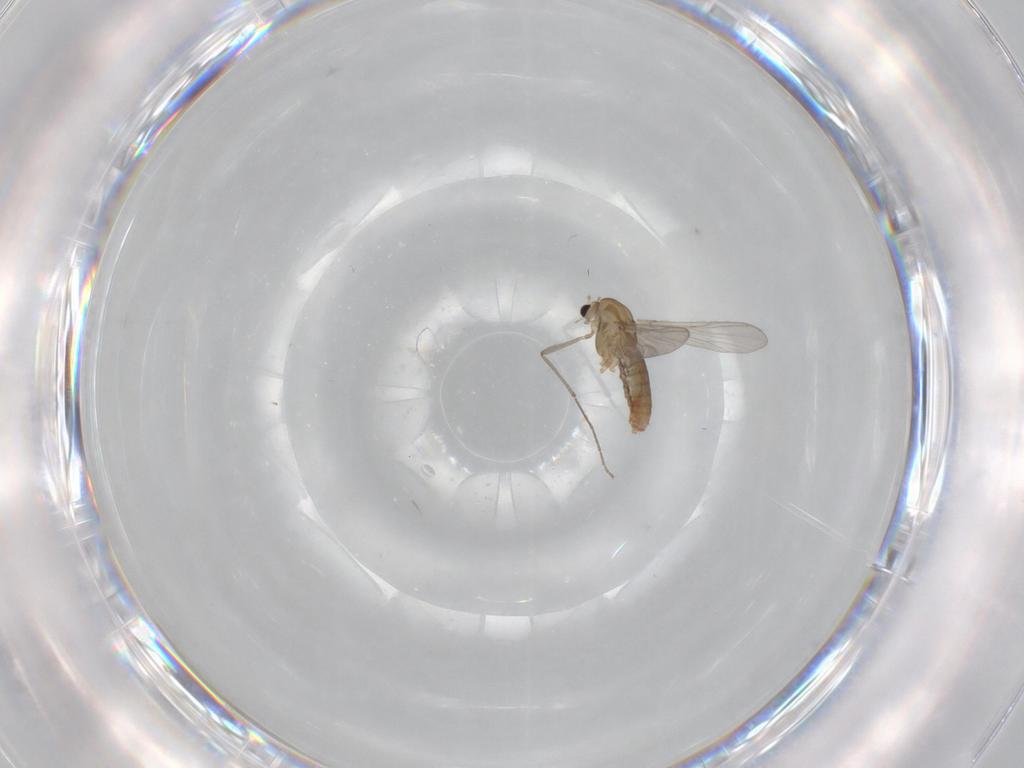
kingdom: Animalia
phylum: Arthropoda
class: Insecta
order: Diptera
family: Chironomidae
